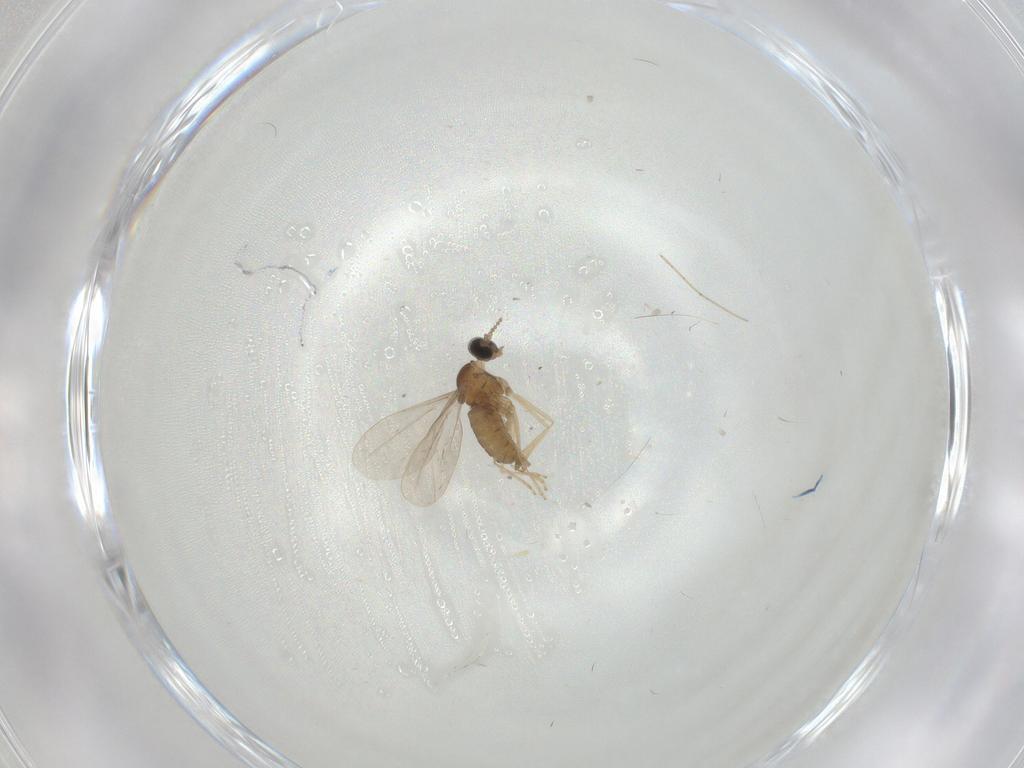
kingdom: Animalia
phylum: Arthropoda
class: Insecta
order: Diptera
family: Cecidomyiidae
